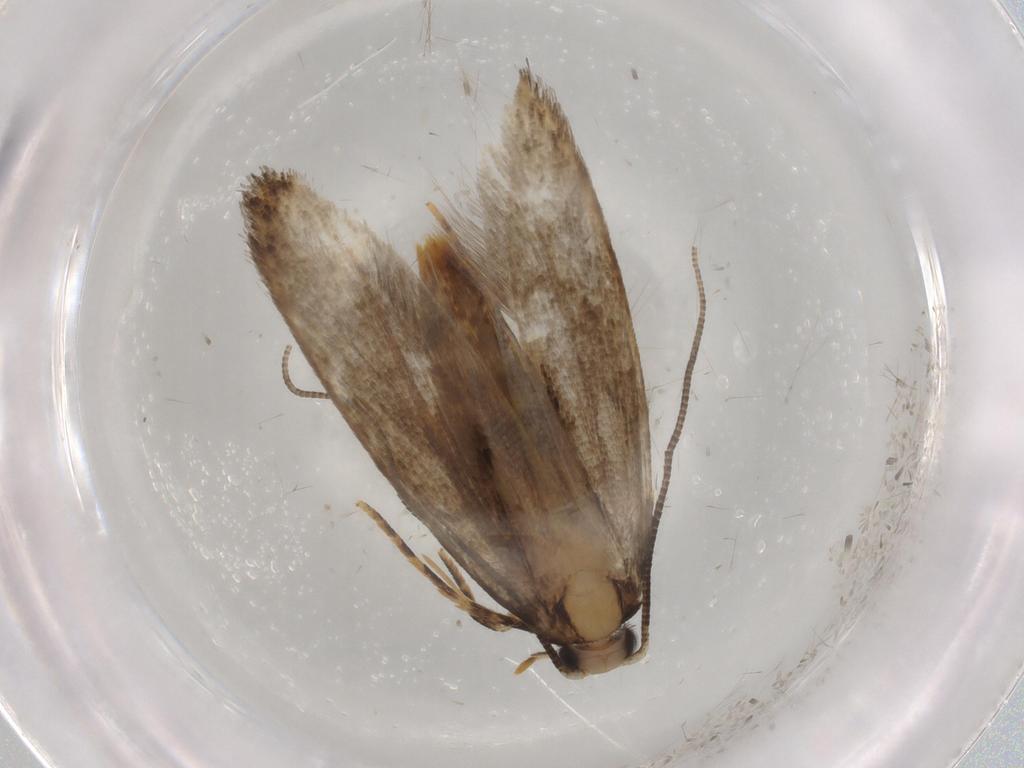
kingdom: Animalia
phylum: Arthropoda
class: Insecta
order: Lepidoptera
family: Tineidae
